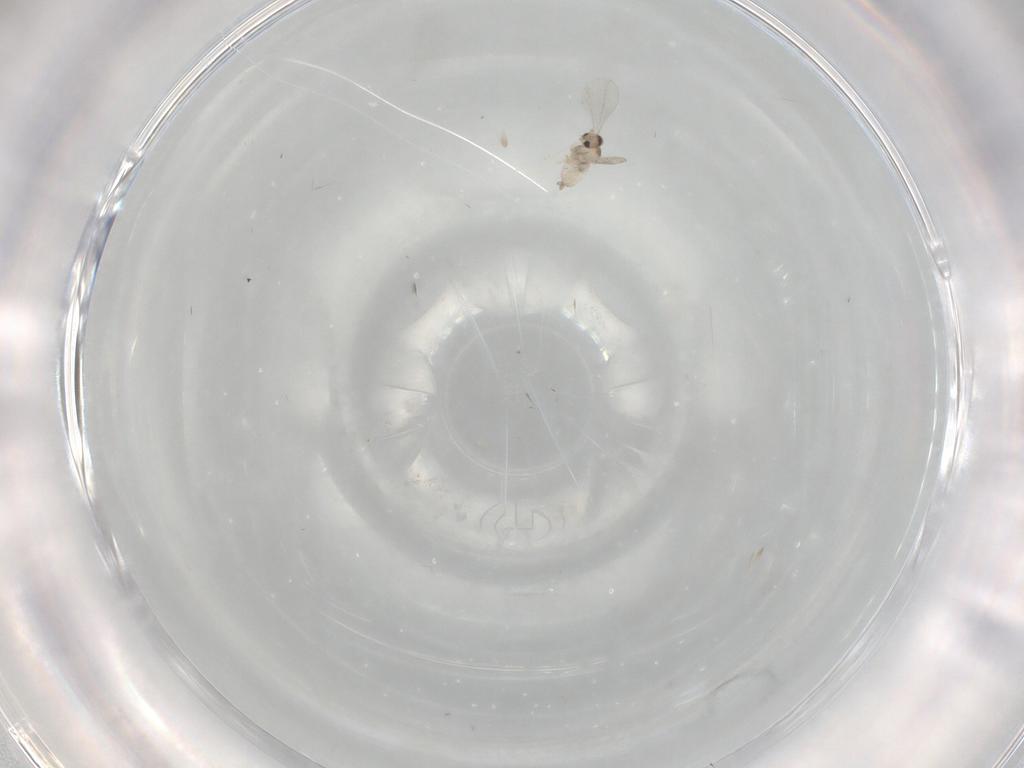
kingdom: Animalia
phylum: Arthropoda
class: Insecta
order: Diptera
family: Cecidomyiidae
